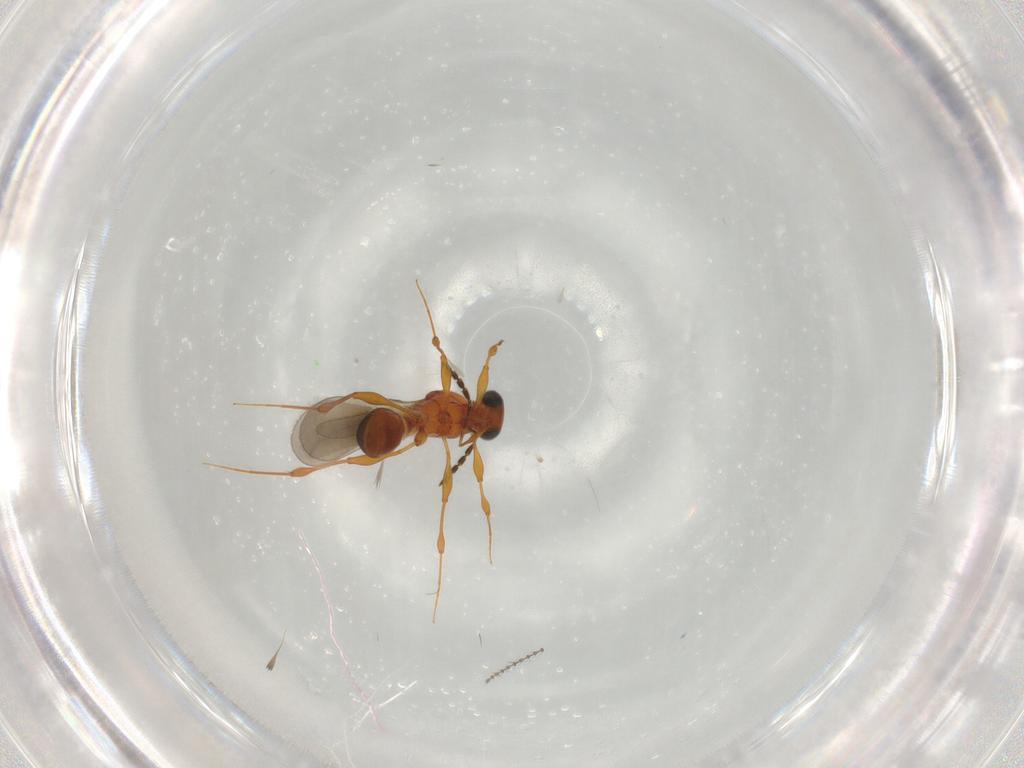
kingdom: Animalia
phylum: Arthropoda
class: Insecta
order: Hymenoptera
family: Platygastridae
